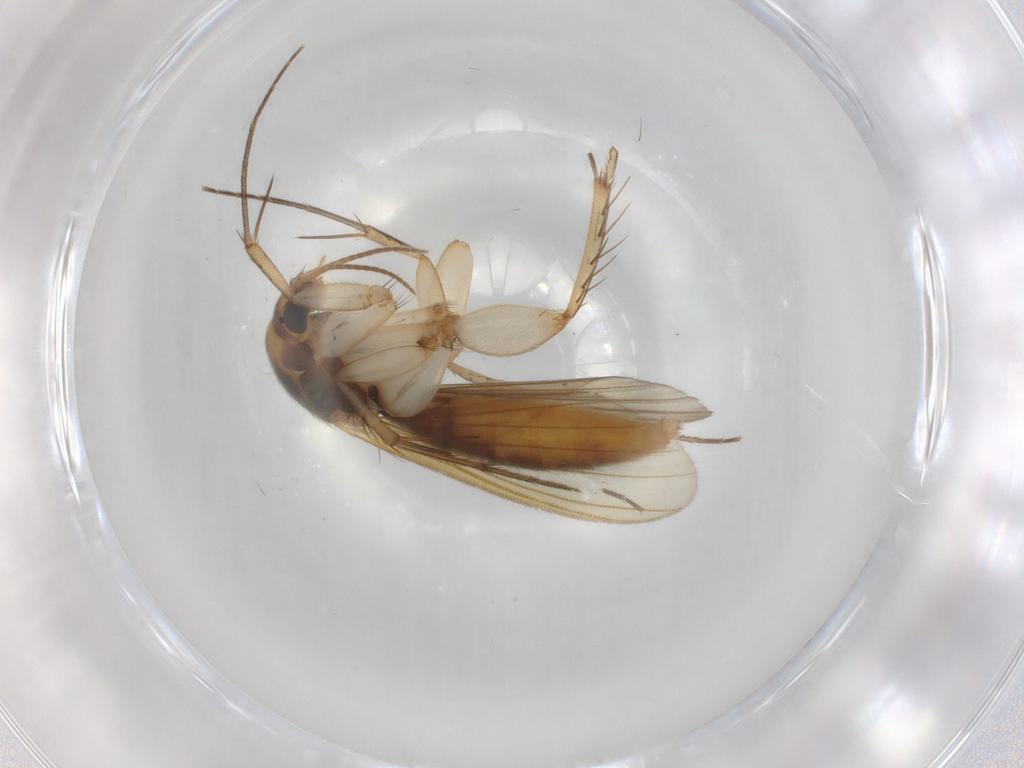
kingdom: Animalia
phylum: Arthropoda
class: Insecta
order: Diptera
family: Mycetophilidae
